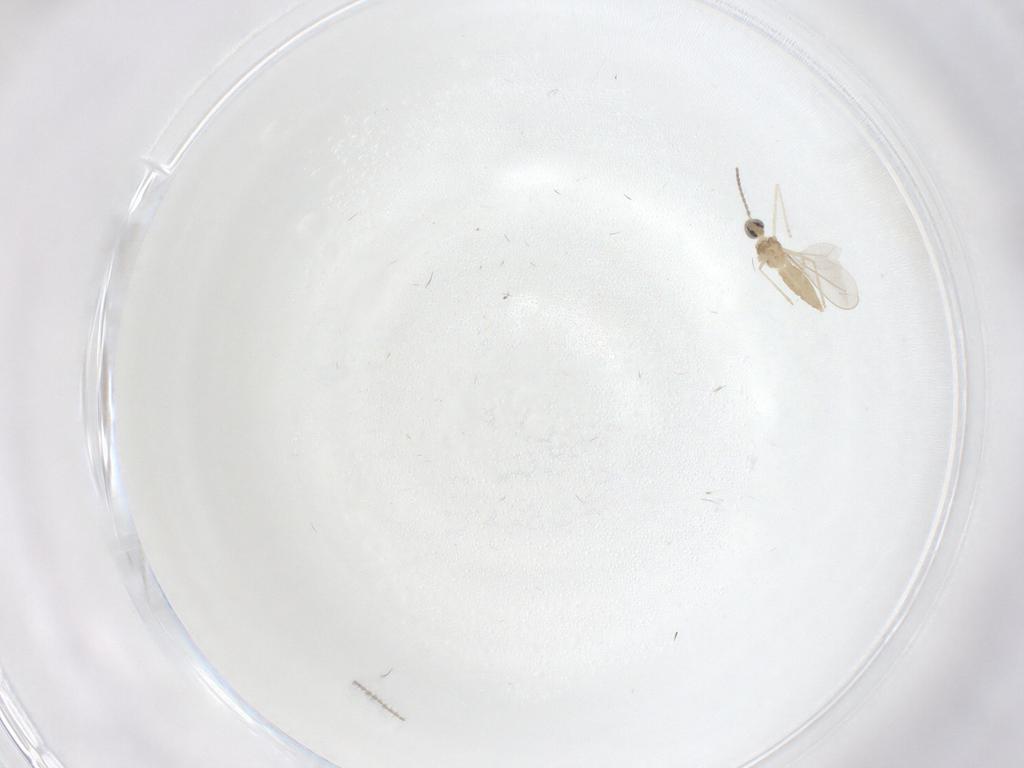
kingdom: Animalia
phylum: Arthropoda
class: Insecta
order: Diptera
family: Cecidomyiidae
